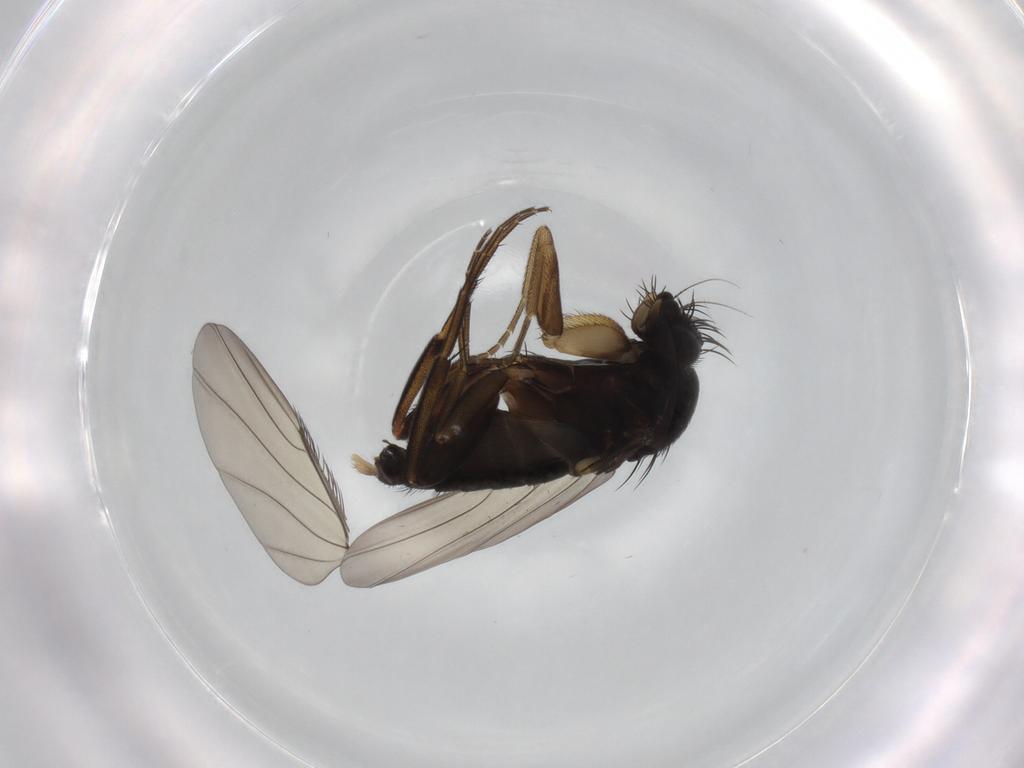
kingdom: Animalia
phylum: Arthropoda
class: Insecta
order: Diptera
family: Phoridae
